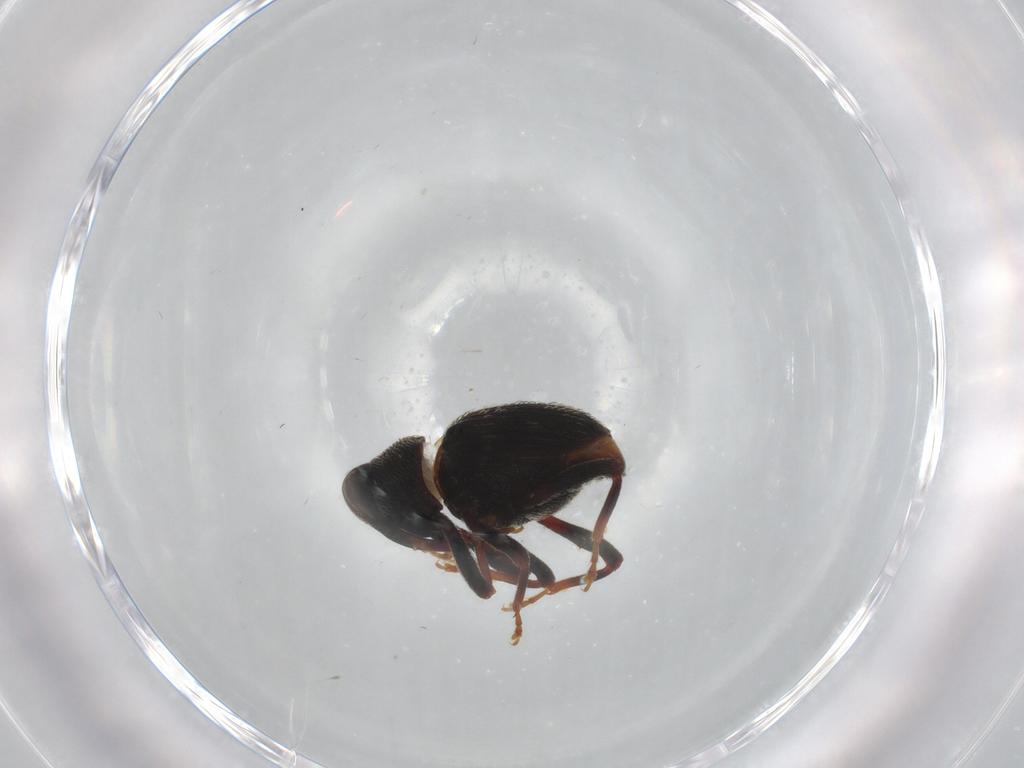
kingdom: Animalia
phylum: Arthropoda
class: Insecta
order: Coleoptera
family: Curculionidae
